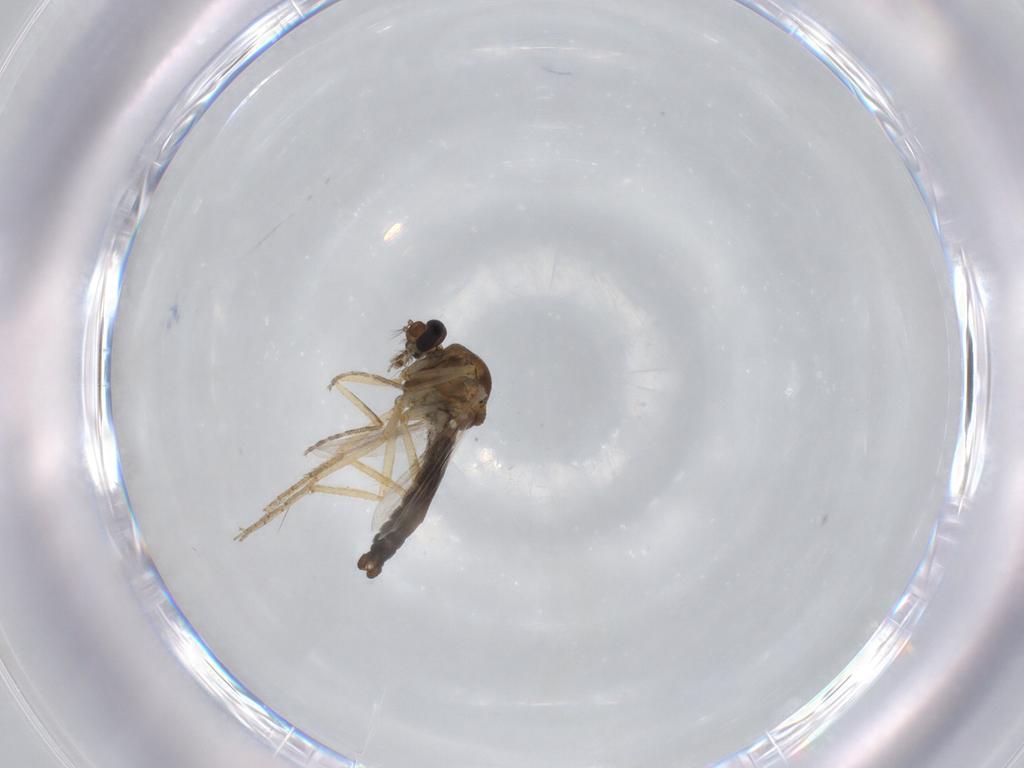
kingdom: Animalia
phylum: Arthropoda
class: Insecta
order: Diptera
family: Ceratopogonidae
